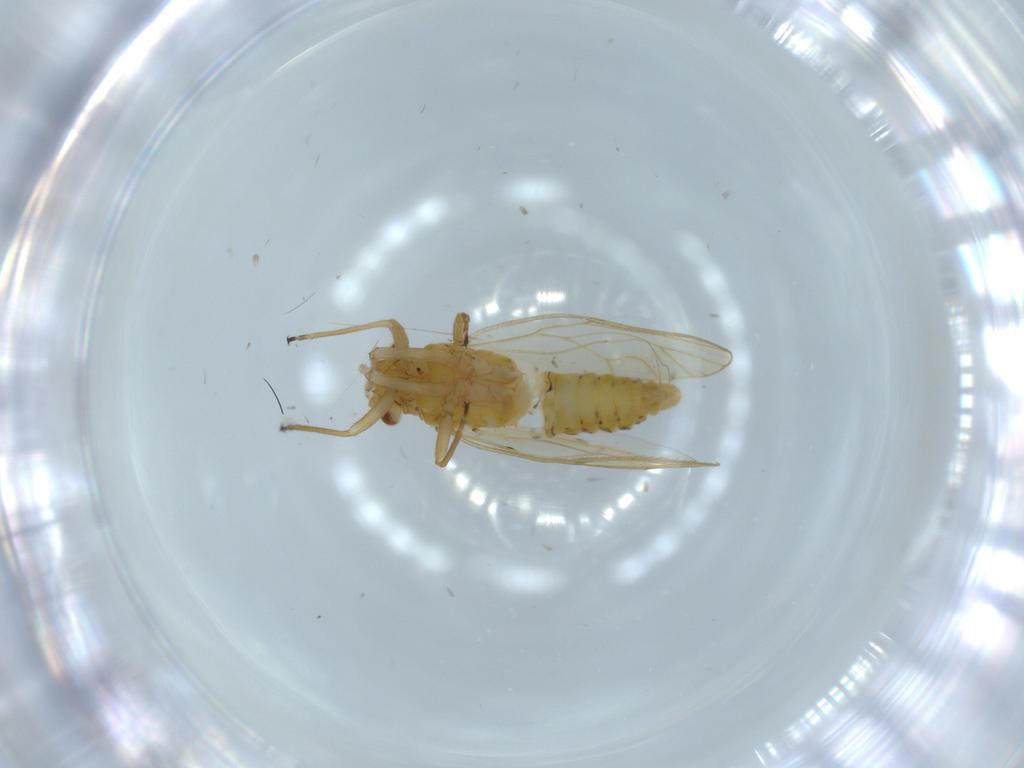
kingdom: Animalia
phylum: Arthropoda
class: Insecta
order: Hemiptera
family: Psyllidae
